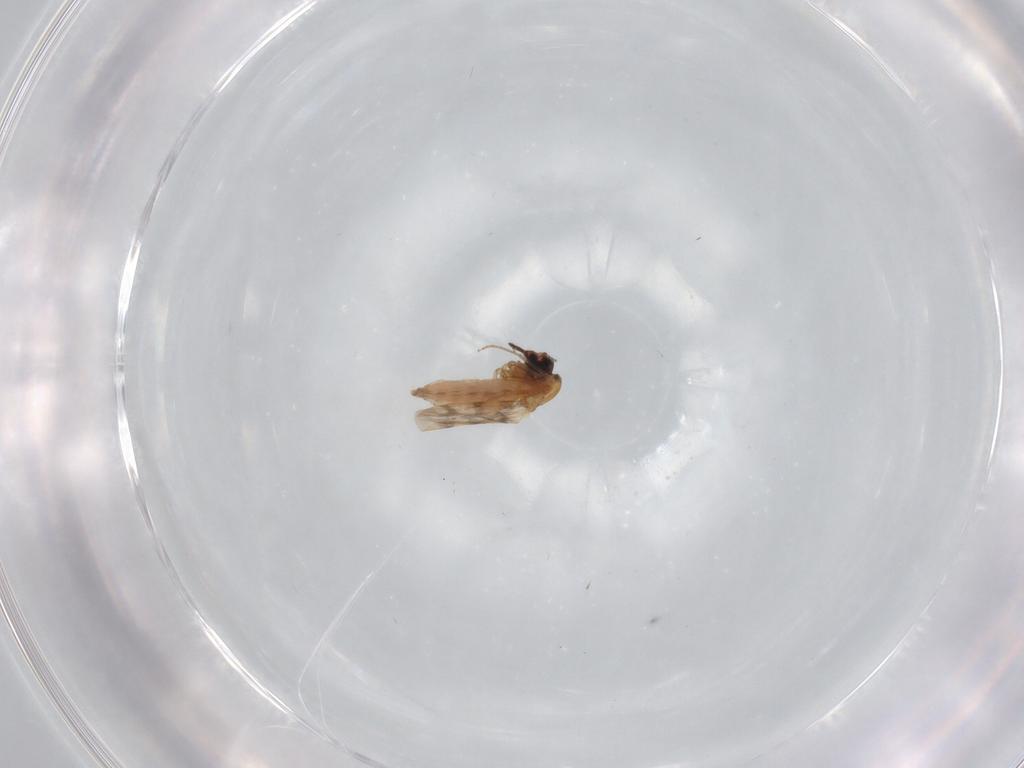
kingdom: Animalia
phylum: Arthropoda
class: Insecta
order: Diptera
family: Ceratopogonidae
